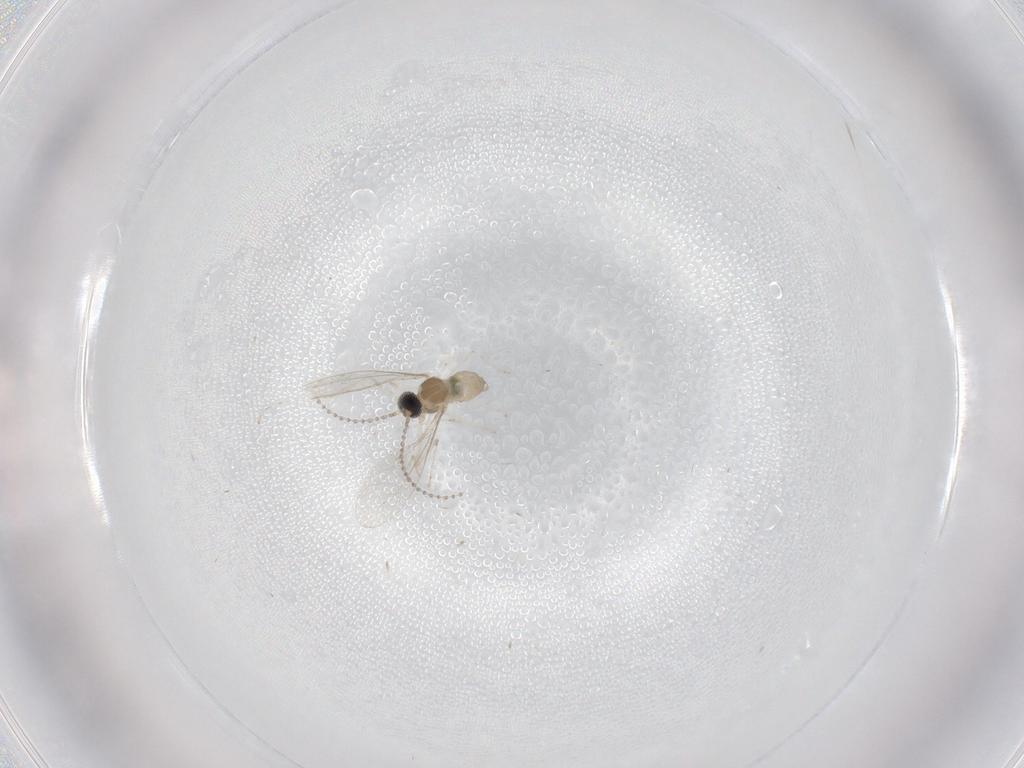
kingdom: Animalia
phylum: Arthropoda
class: Insecta
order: Diptera
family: Cecidomyiidae
